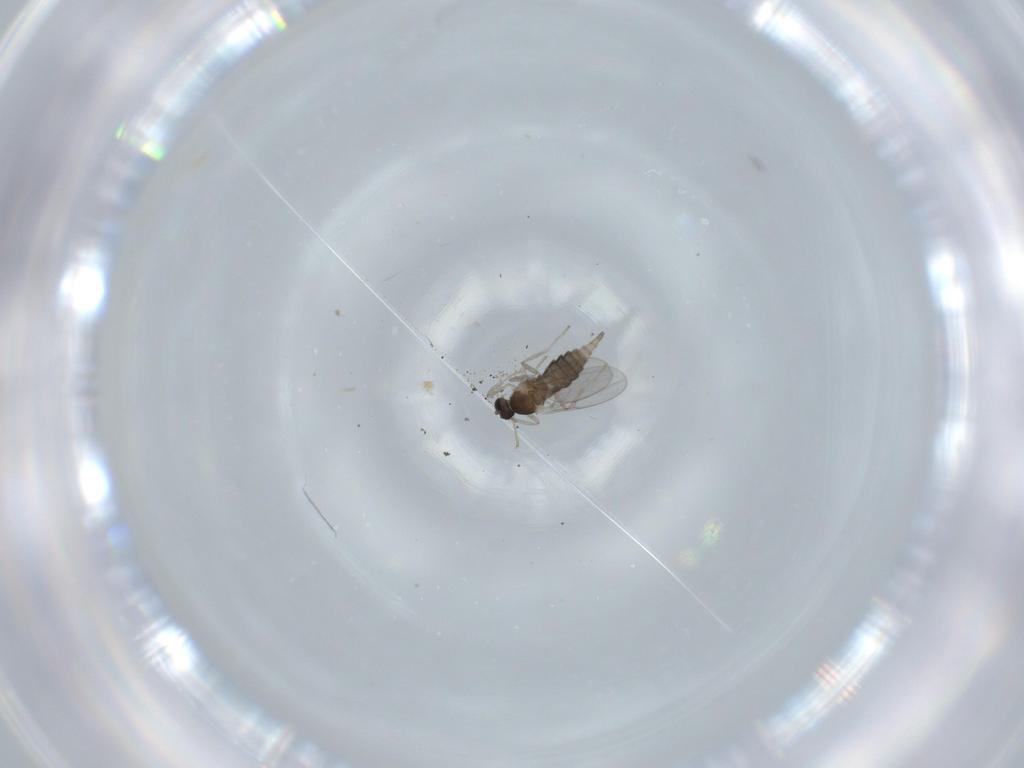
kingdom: Animalia
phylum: Arthropoda
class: Insecta
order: Diptera
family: Cecidomyiidae
